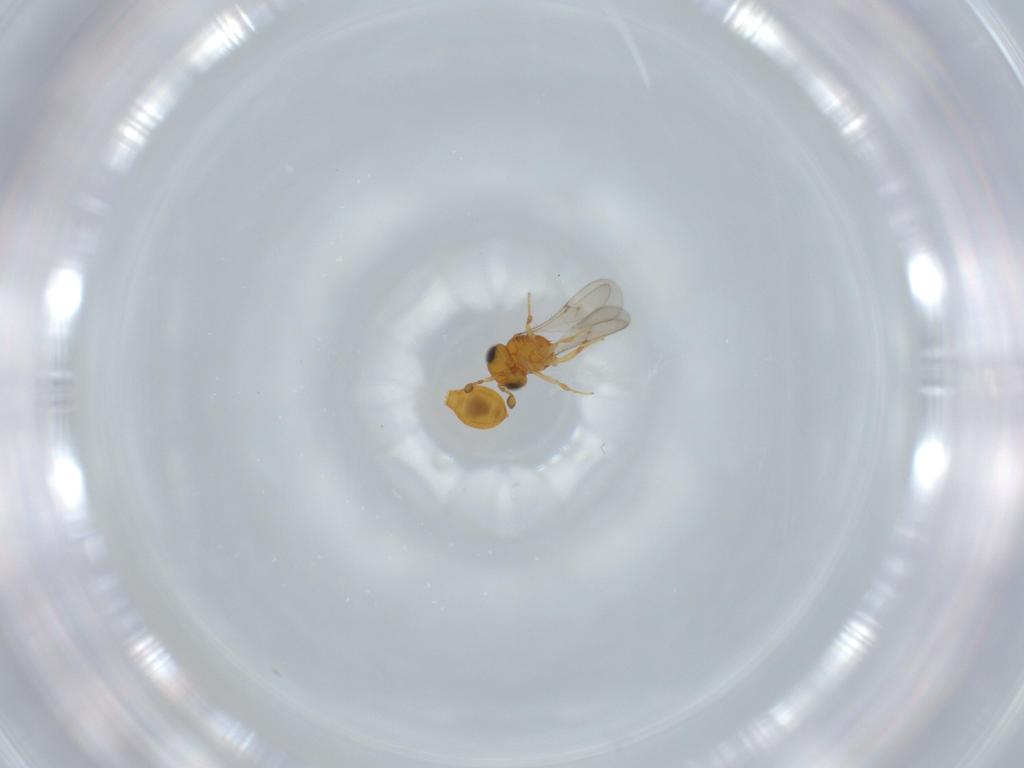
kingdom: Animalia
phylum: Arthropoda
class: Insecta
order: Hymenoptera
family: Scelionidae
